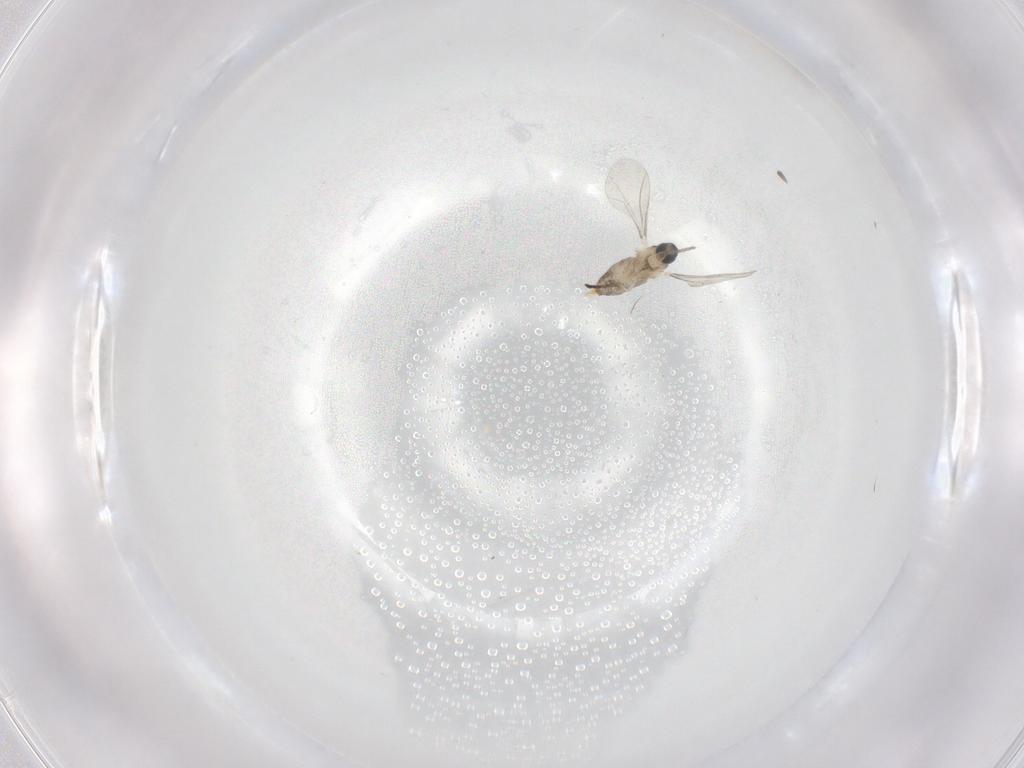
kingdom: Animalia
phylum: Arthropoda
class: Insecta
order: Diptera
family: Cecidomyiidae
